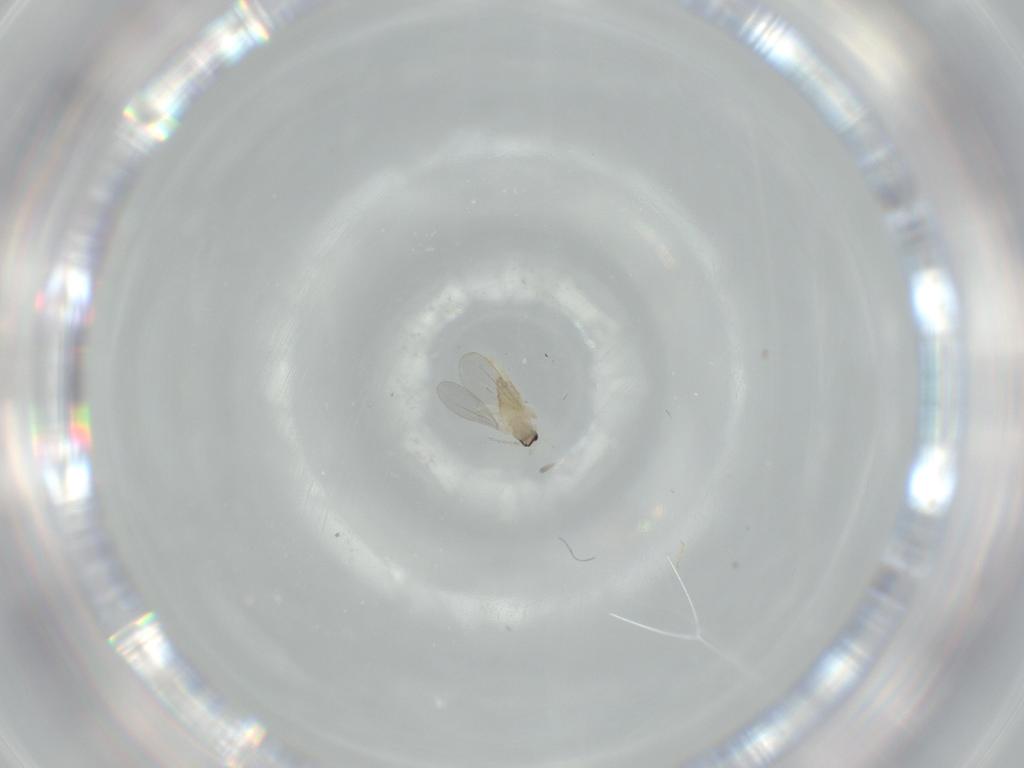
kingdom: Animalia
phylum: Arthropoda
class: Insecta
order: Diptera
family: Cecidomyiidae
